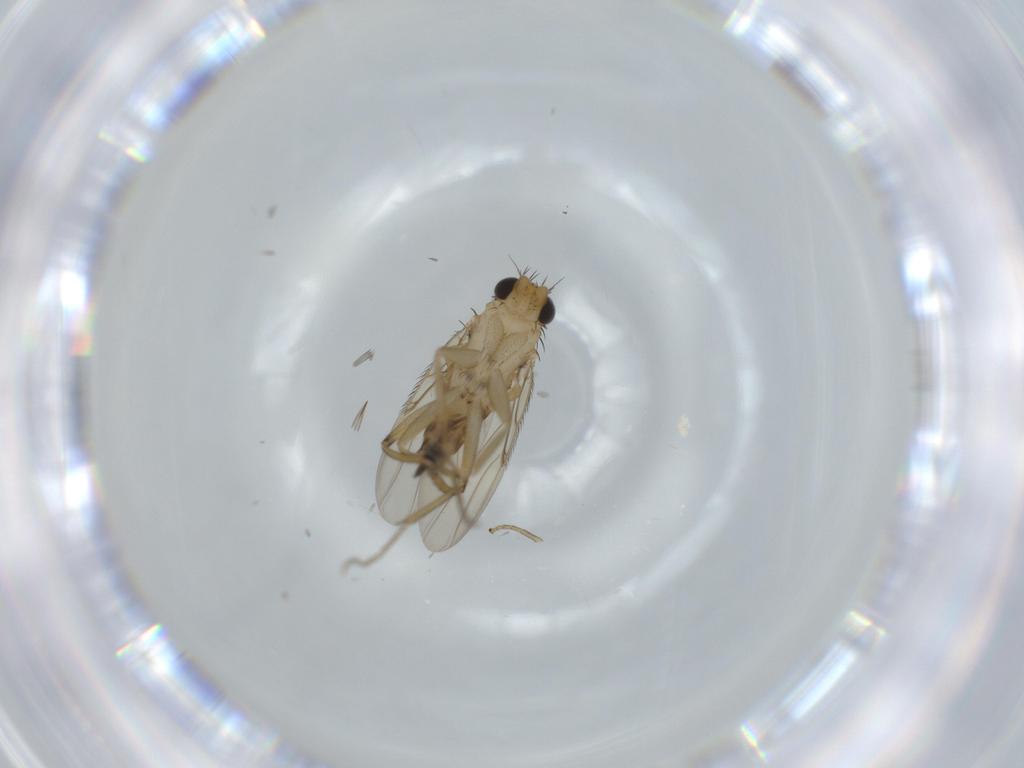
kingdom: Animalia
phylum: Arthropoda
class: Insecta
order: Diptera
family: Phoridae
